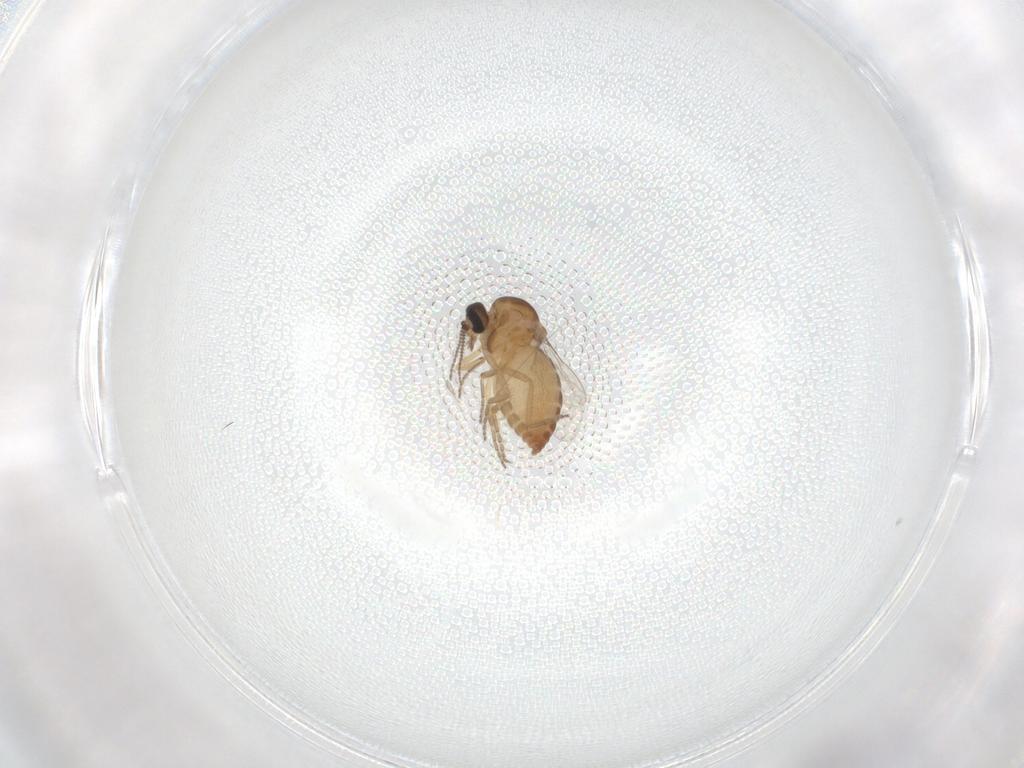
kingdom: Animalia
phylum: Arthropoda
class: Insecta
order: Diptera
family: Ceratopogonidae
